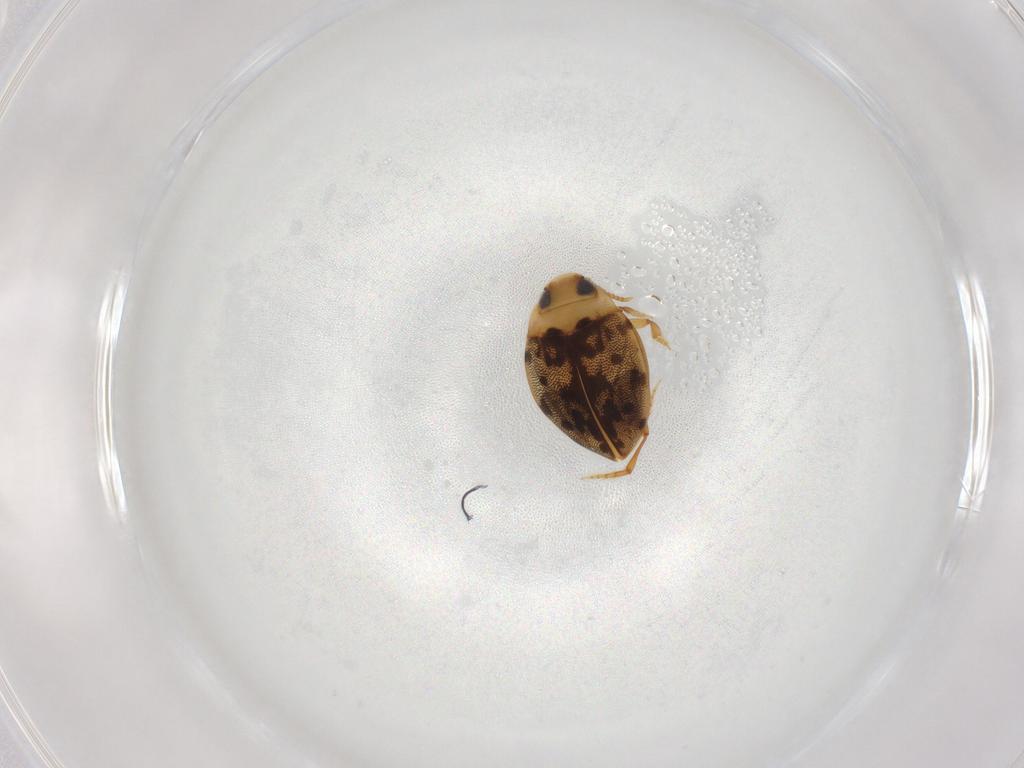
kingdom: Animalia
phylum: Arthropoda
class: Insecta
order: Coleoptera
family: Dytiscidae
